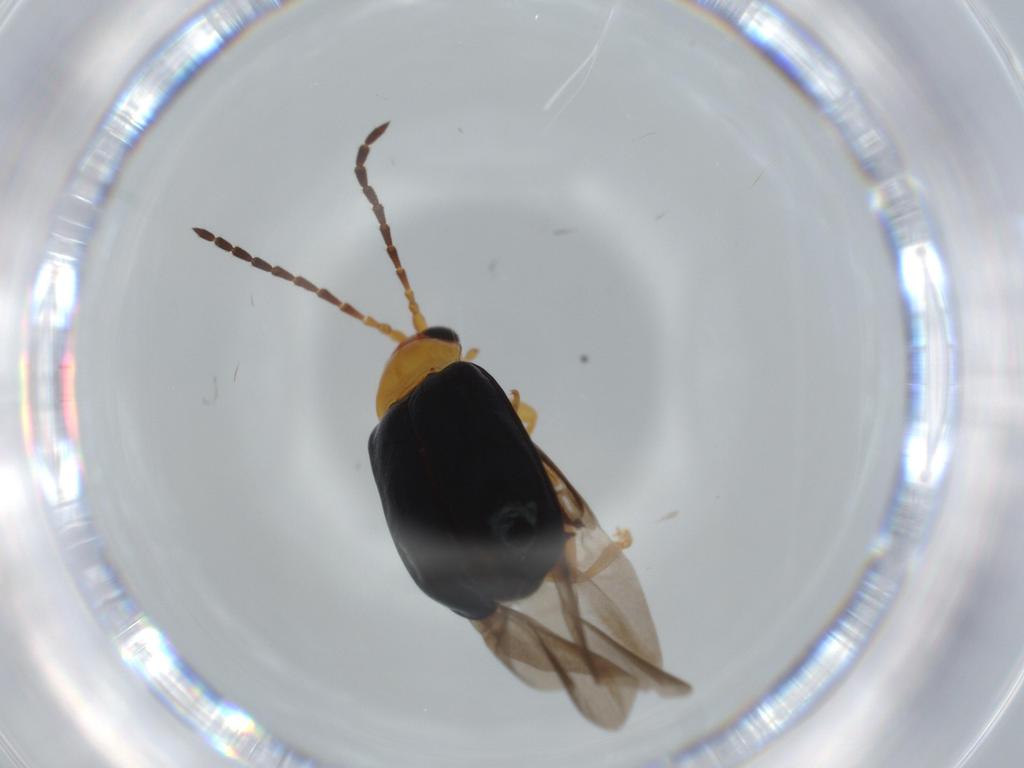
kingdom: Animalia
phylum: Arthropoda
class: Insecta
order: Coleoptera
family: Chrysomelidae
